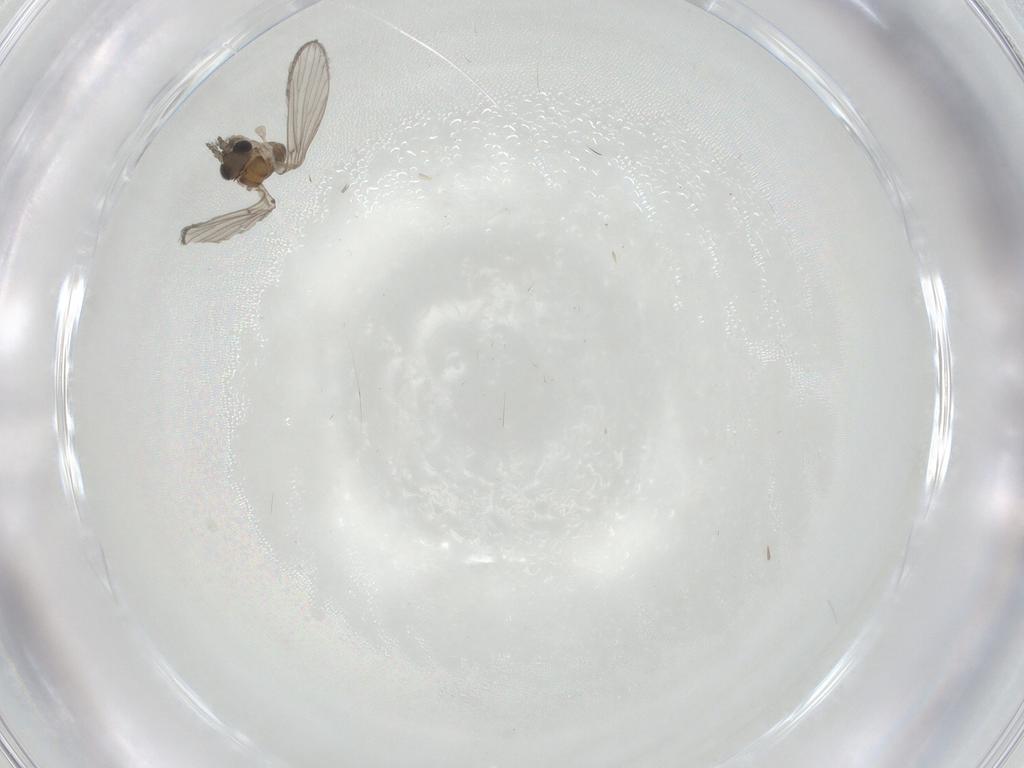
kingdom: Animalia
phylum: Arthropoda
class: Insecta
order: Diptera
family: Psychodidae
